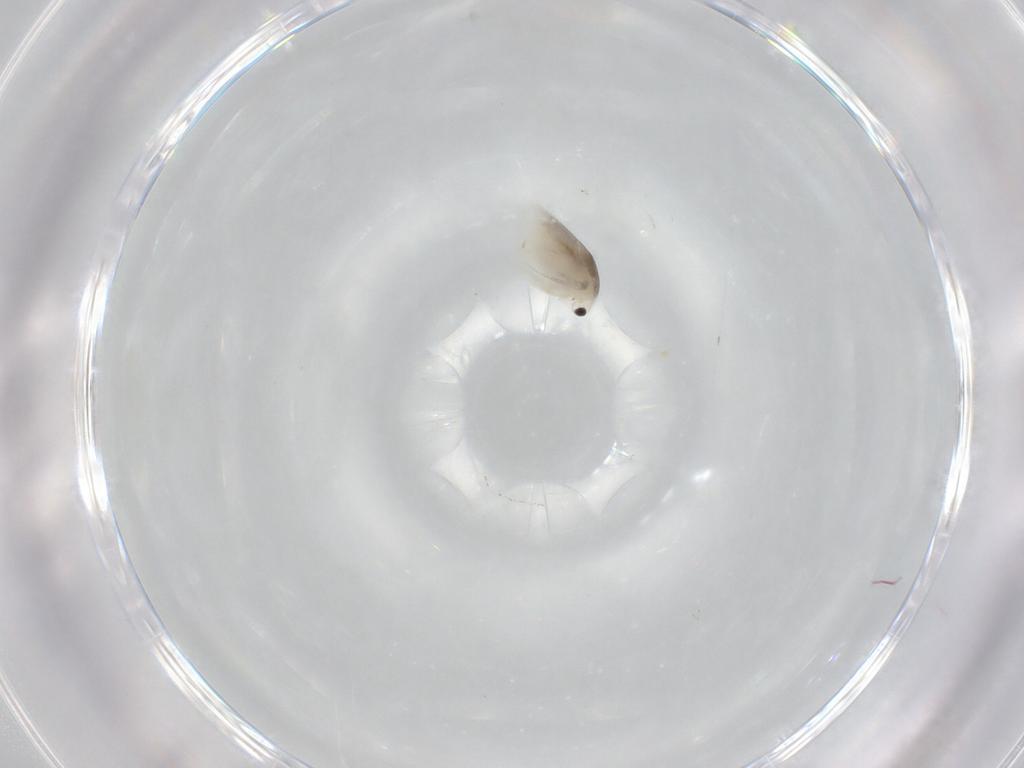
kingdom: Animalia
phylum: Arthropoda
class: Branchiopoda
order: Diplostraca
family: Daphniidae
